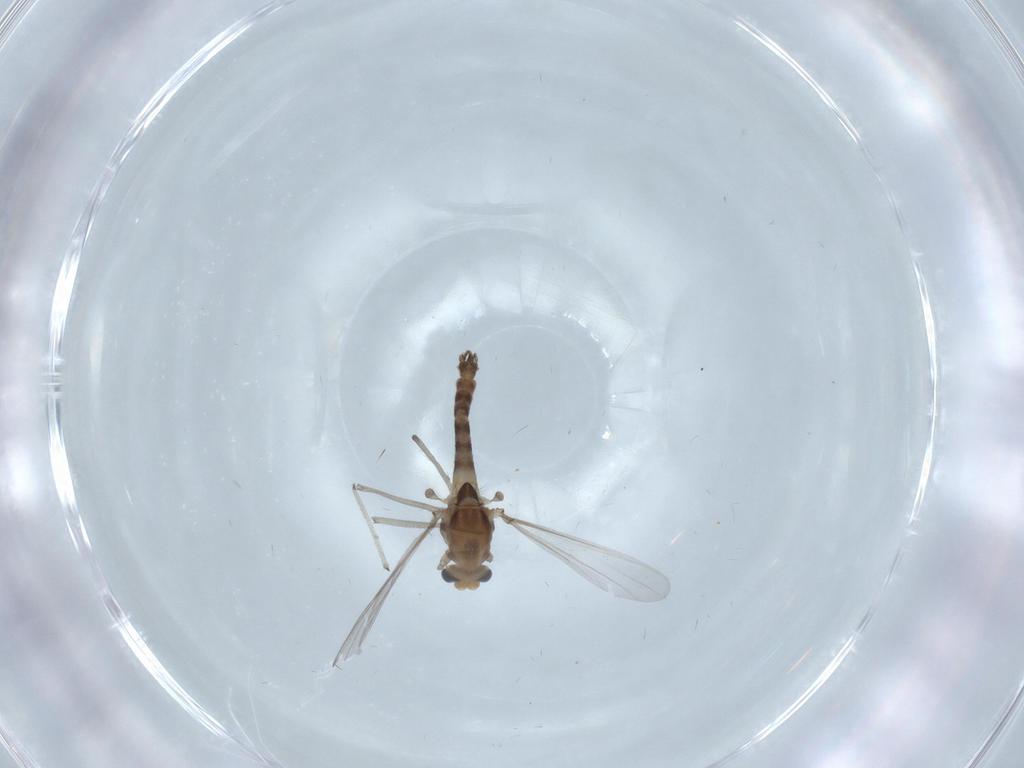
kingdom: Animalia
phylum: Arthropoda
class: Insecta
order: Diptera
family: Chironomidae
